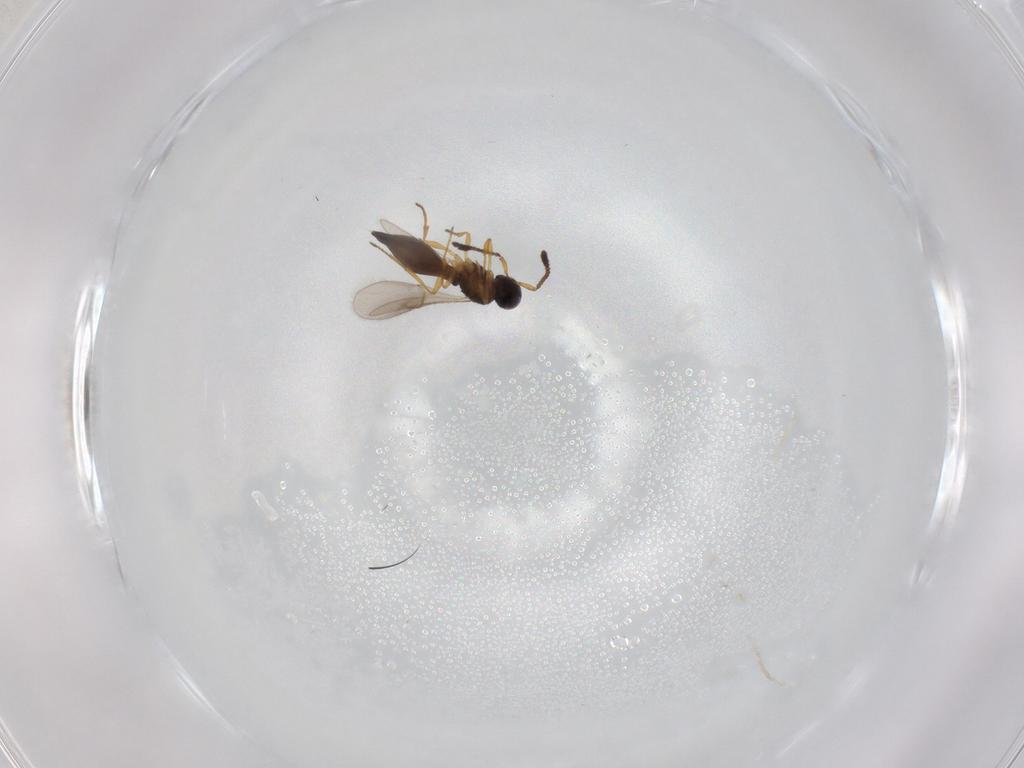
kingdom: Animalia
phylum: Arthropoda
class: Insecta
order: Hymenoptera
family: Scelionidae
